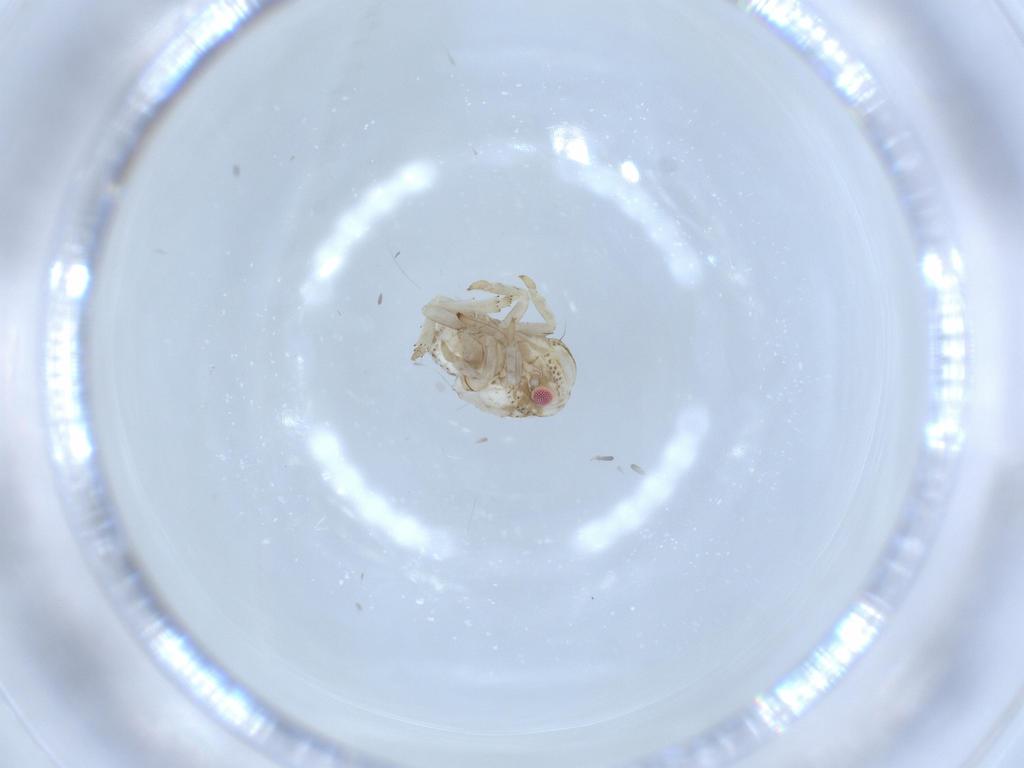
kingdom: Animalia
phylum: Arthropoda
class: Insecta
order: Hemiptera
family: Acanaloniidae
